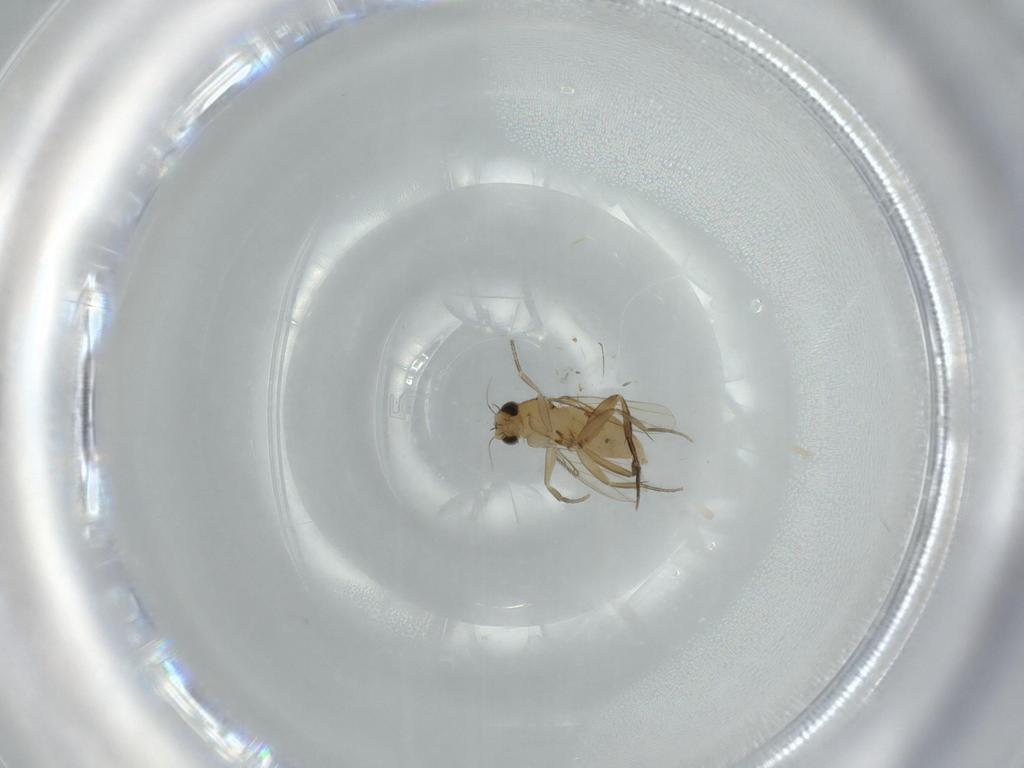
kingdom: Animalia
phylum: Arthropoda
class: Insecta
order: Diptera
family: Phoridae
